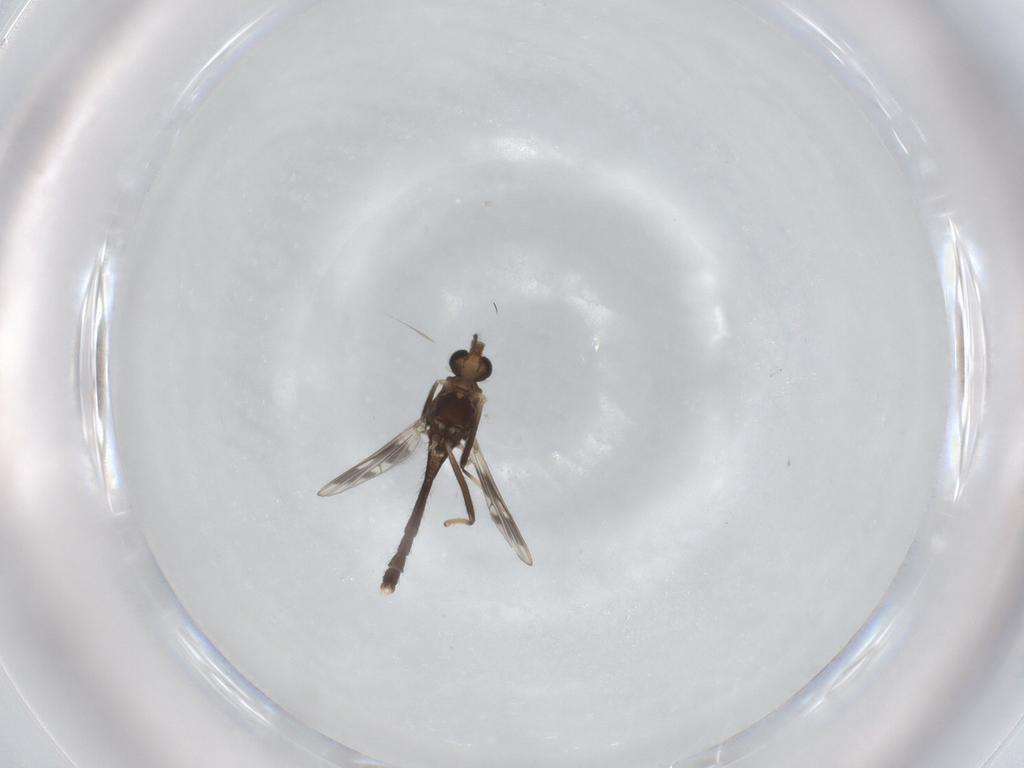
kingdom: Animalia
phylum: Arthropoda
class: Insecta
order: Diptera
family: Chironomidae
